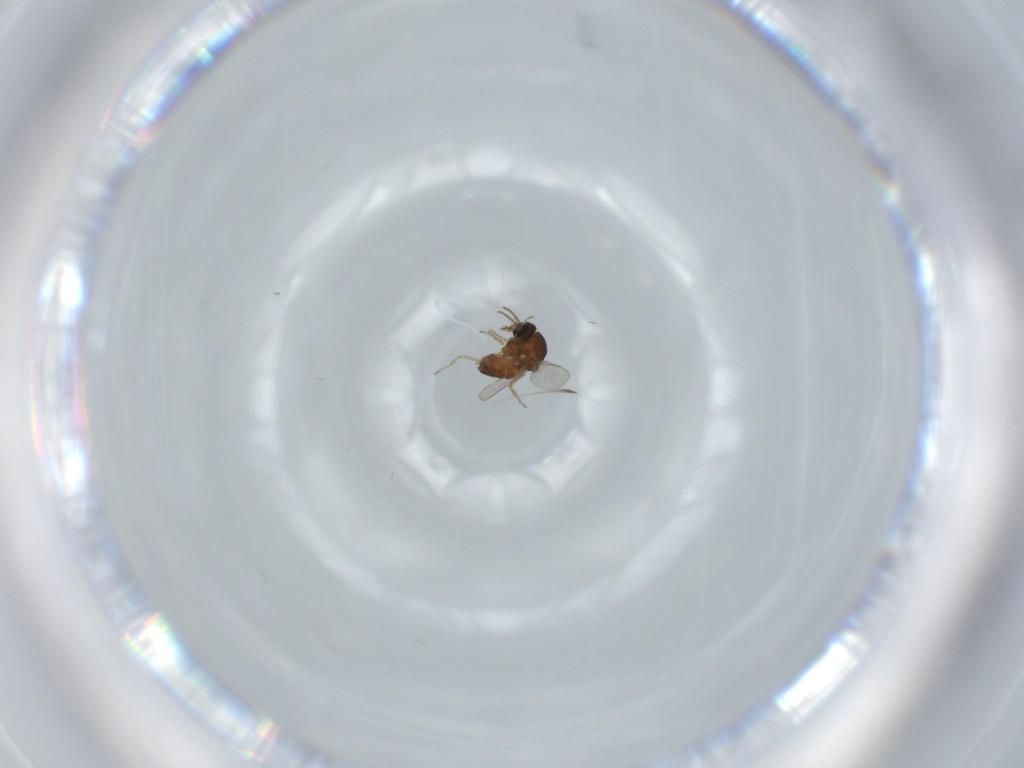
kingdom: Animalia
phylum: Arthropoda
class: Insecta
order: Diptera
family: Ceratopogonidae
